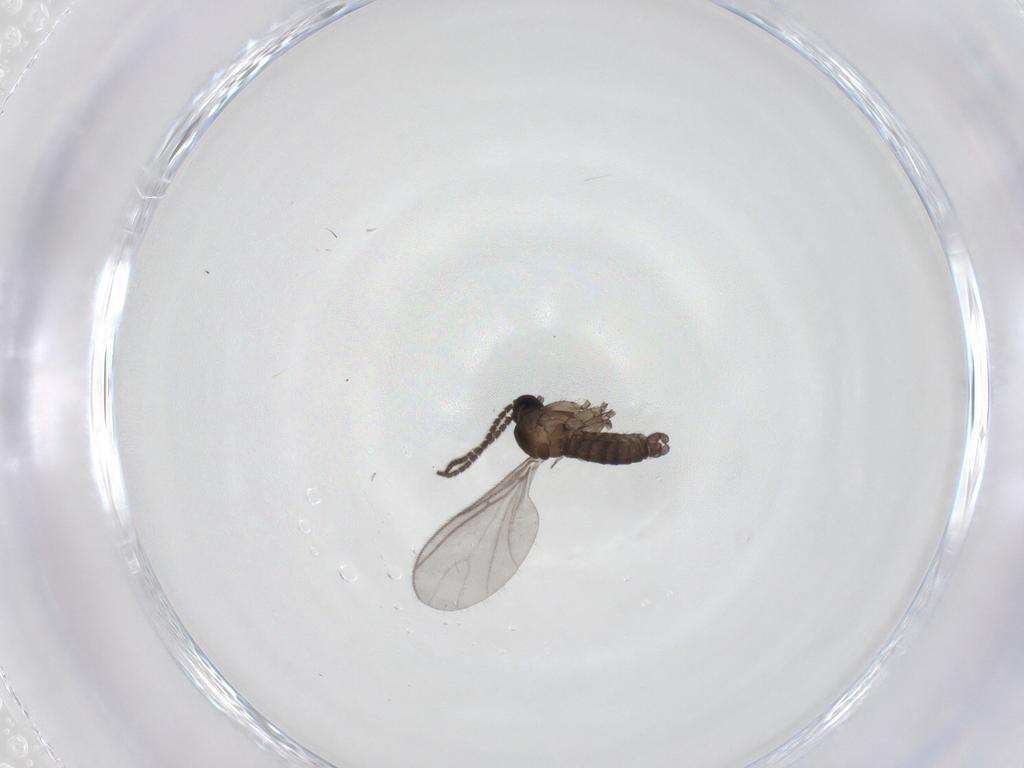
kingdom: Animalia
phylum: Arthropoda
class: Insecta
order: Diptera
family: Sciaridae
